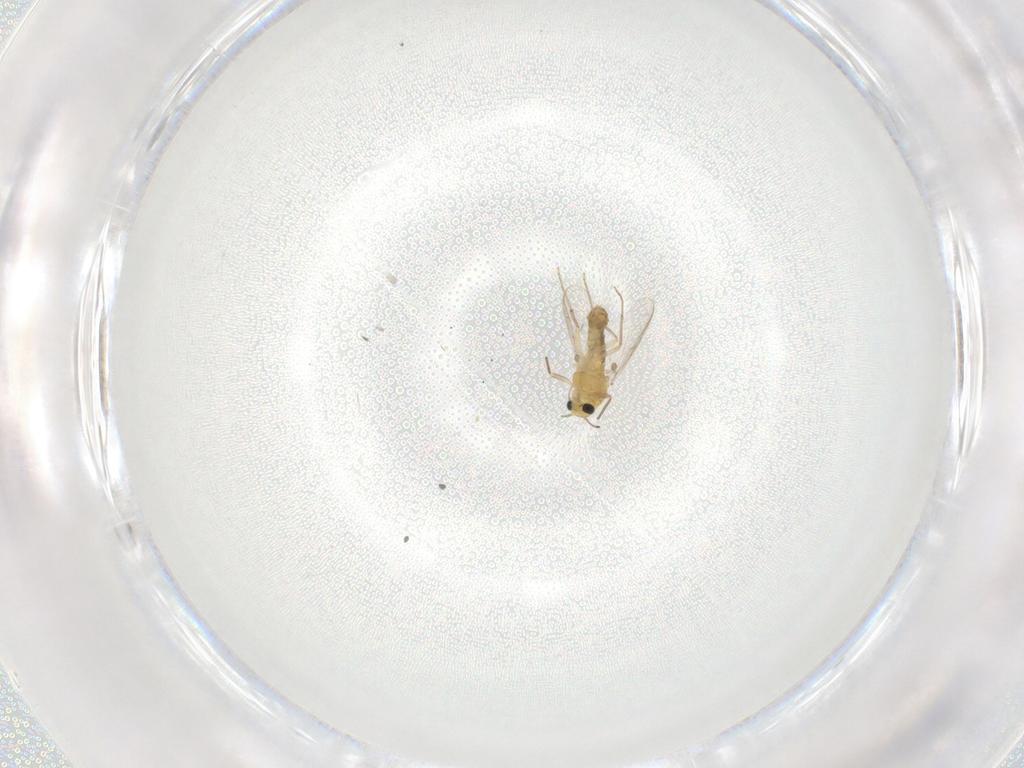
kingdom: Animalia
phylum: Arthropoda
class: Insecta
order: Diptera
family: Chironomidae
